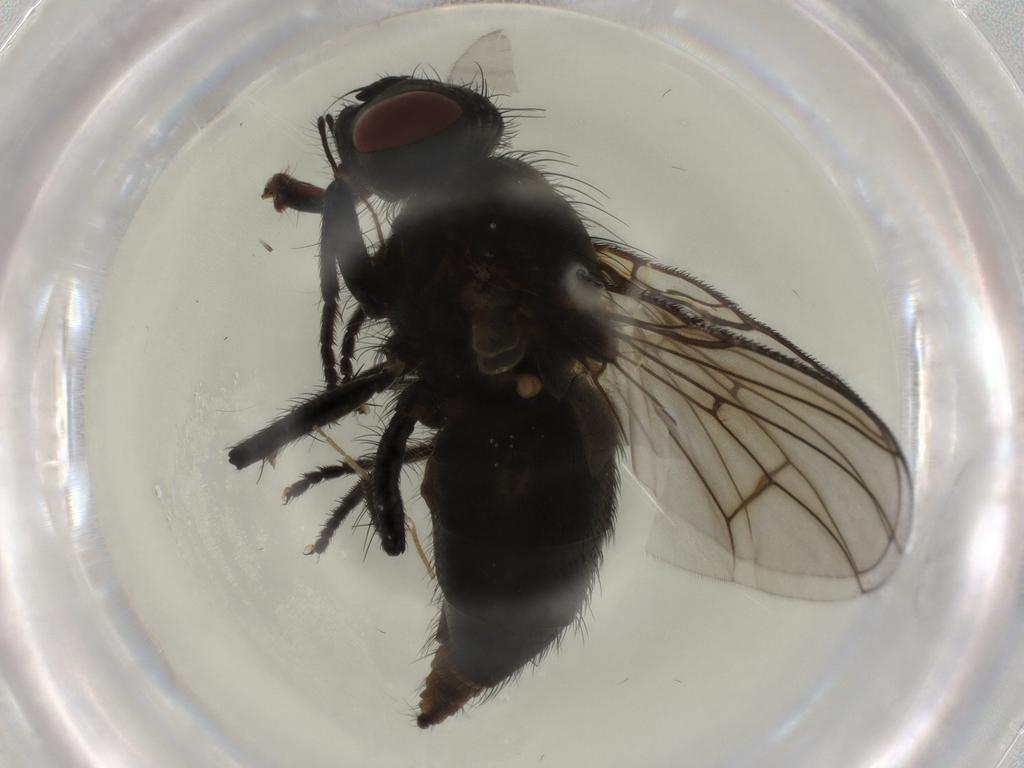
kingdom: Animalia
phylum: Arthropoda
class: Insecta
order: Diptera
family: Muscidae
